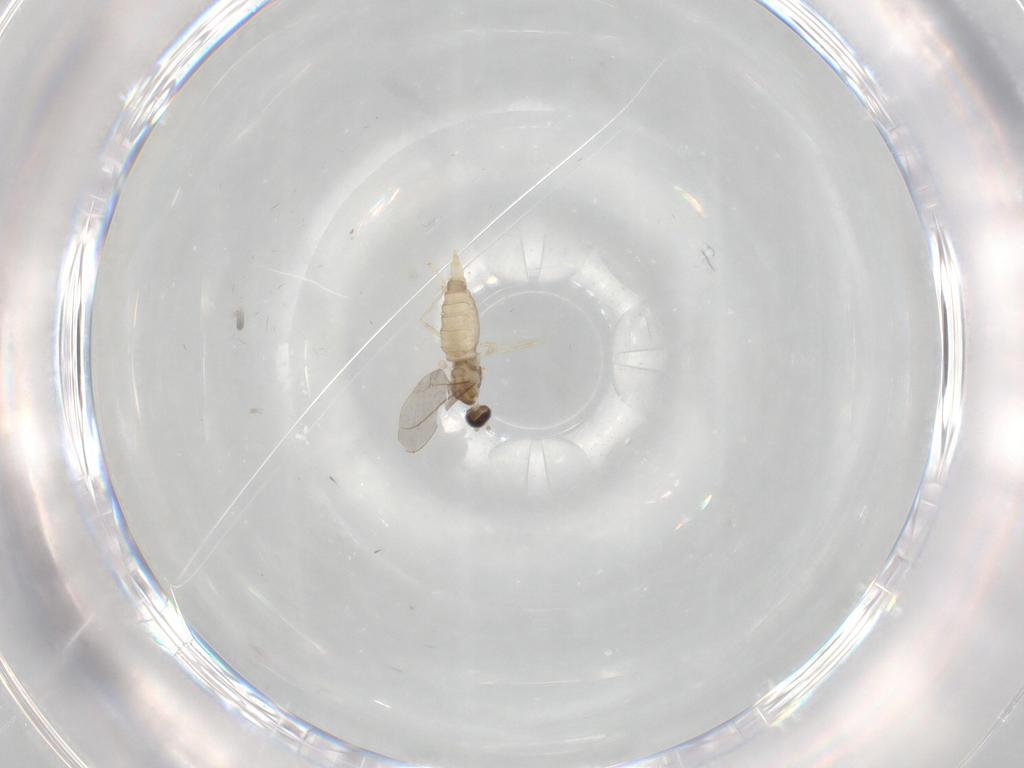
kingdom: Animalia
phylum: Arthropoda
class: Insecta
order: Diptera
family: Cecidomyiidae
